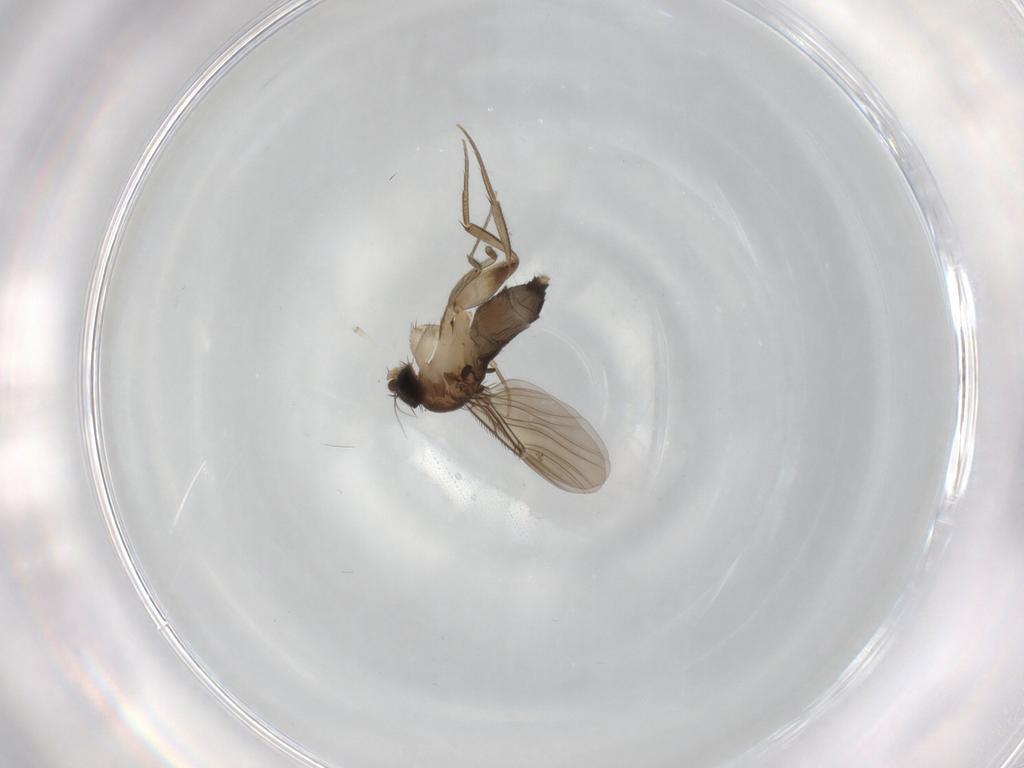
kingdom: Animalia
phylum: Arthropoda
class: Insecta
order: Diptera
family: Phoridae
